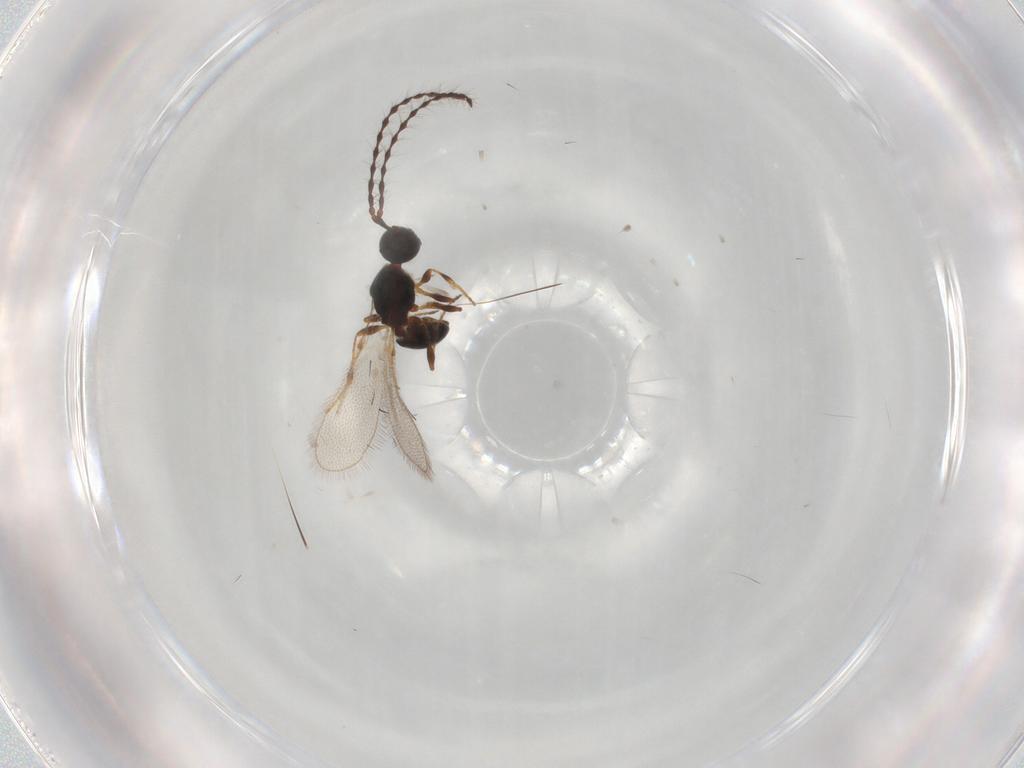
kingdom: Animalia
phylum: Arthropoda
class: Insecta
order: Hymenoptera
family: Diapriidae
